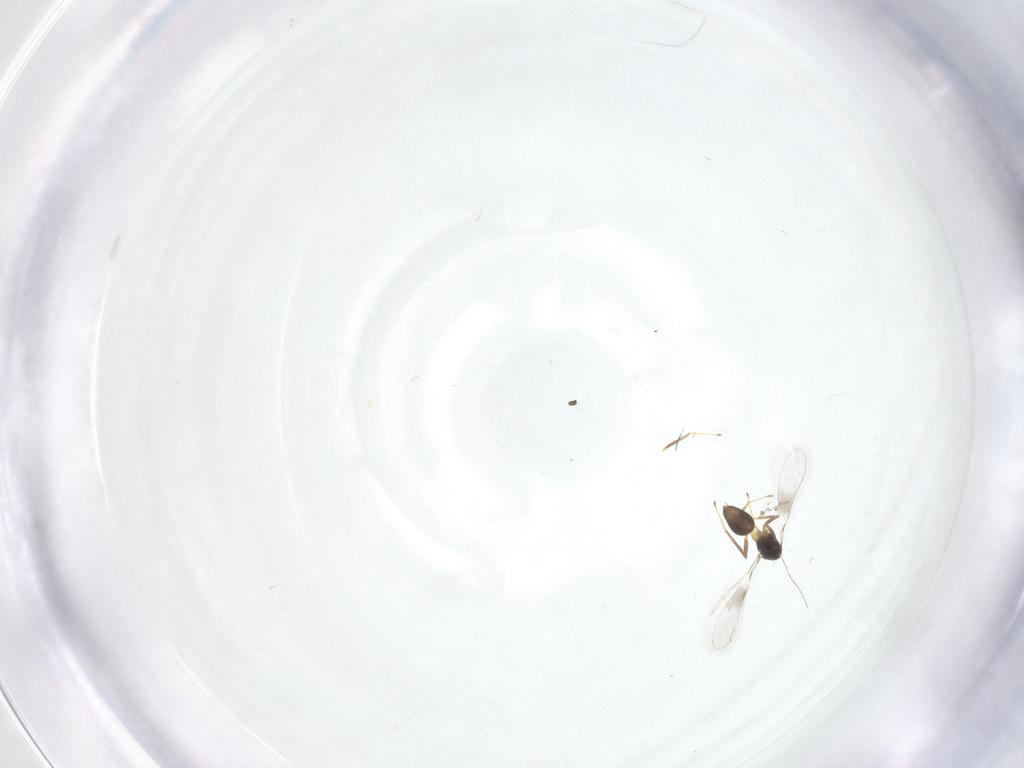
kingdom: Animalia
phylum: Arthropoda
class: Insecta
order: Hymenoptera
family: Mymaridae
